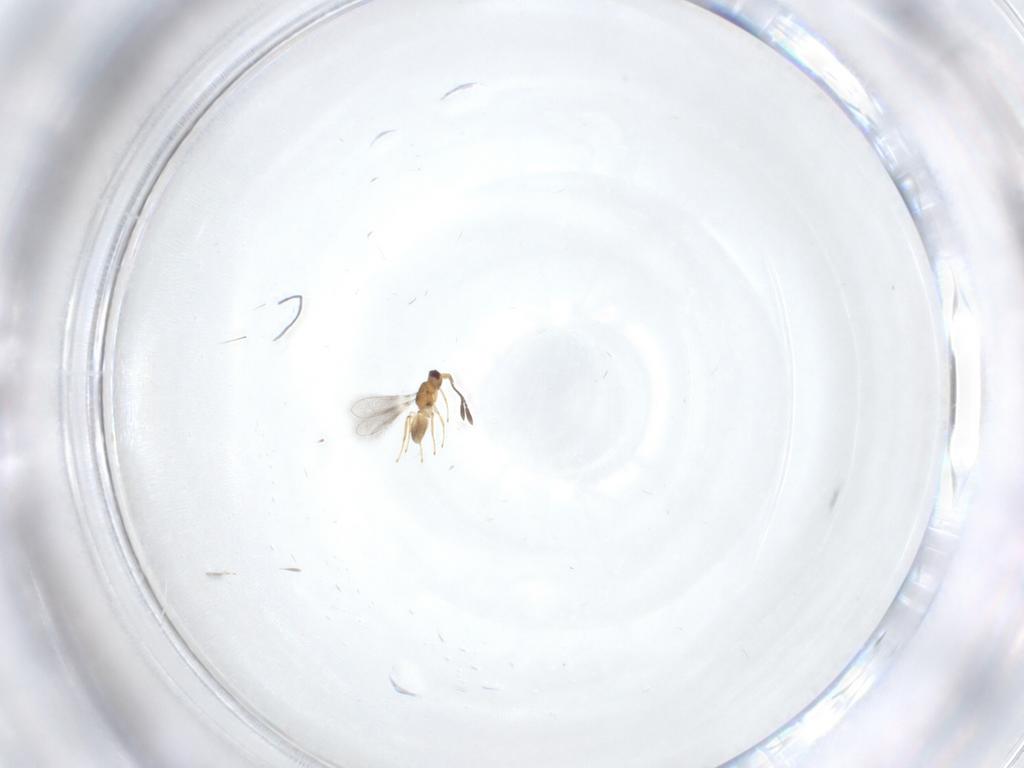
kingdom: Animalia
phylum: Arthropoda
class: Insecta
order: Hymenoptera
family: Mymaridae
